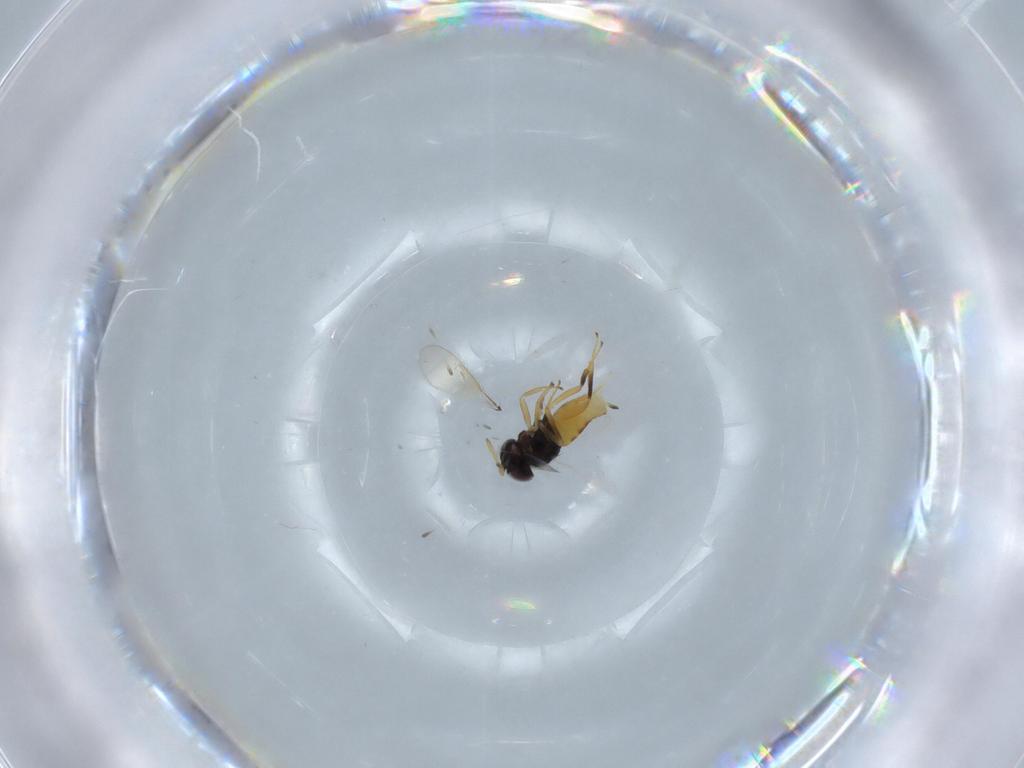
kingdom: Animalia
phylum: Arthropoda
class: Insecta
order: Hymenoptera
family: Aphelinidae
